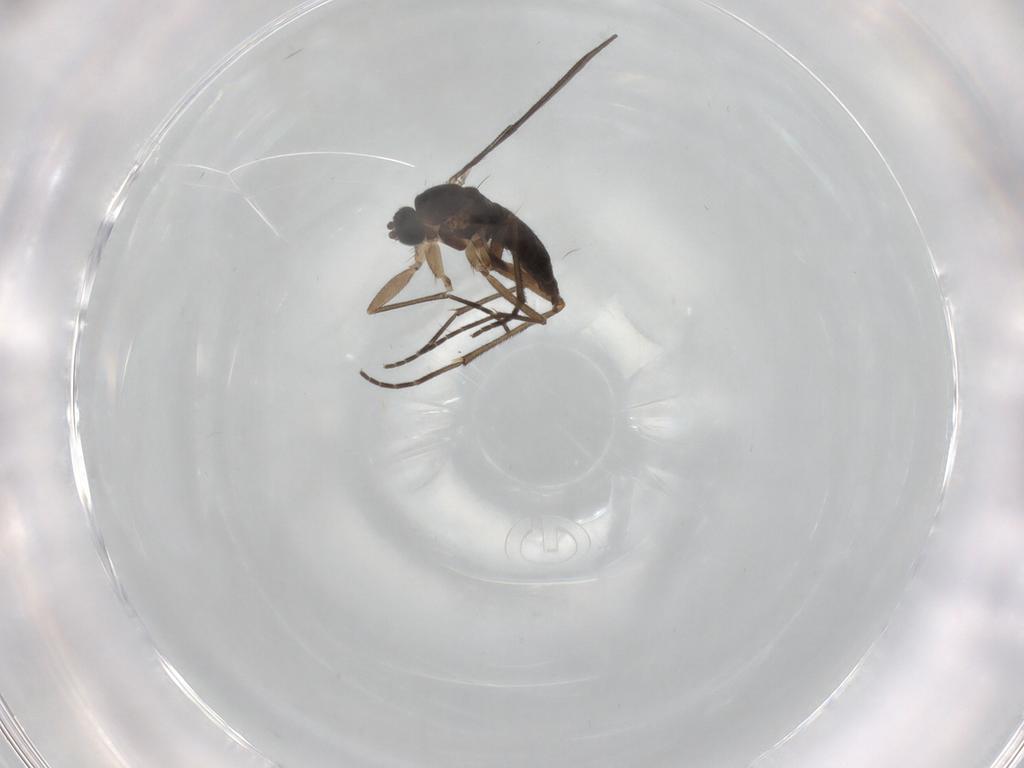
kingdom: Animalia
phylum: Arthropoda
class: Insecta
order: Diptera
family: Sciaridae
